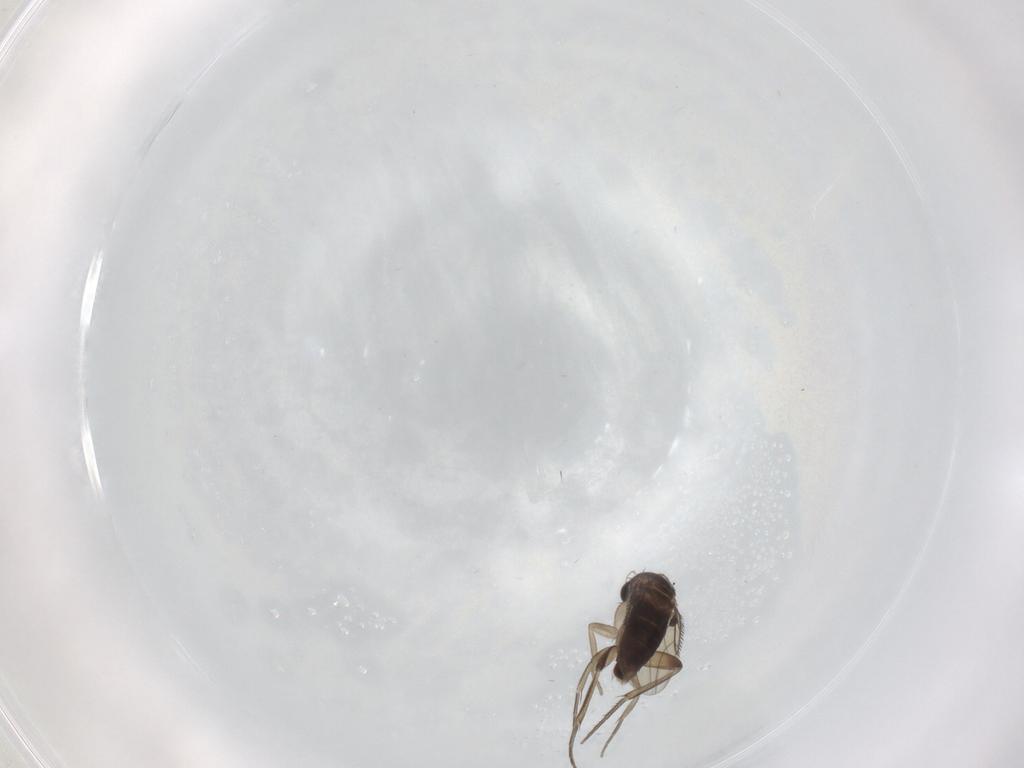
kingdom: Animalia
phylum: Arthropoda
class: Insecta
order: Diptera
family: Phoridae
